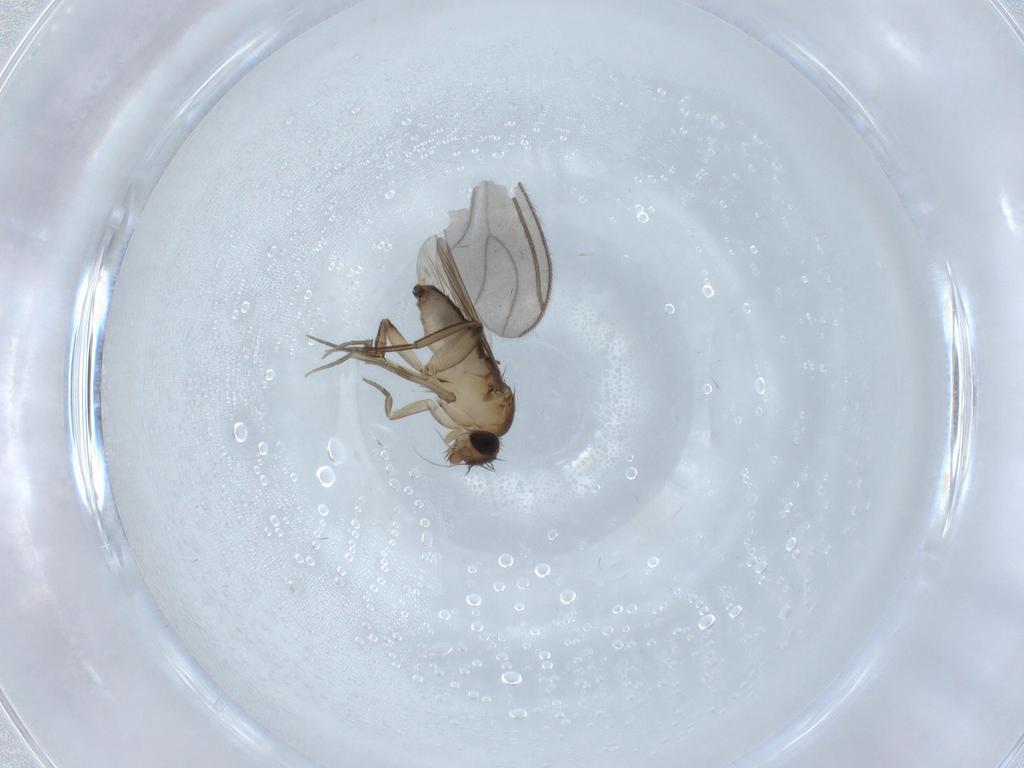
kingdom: Animalia
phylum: Arthropoda
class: Insecta
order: Diptera
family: Phoridae
